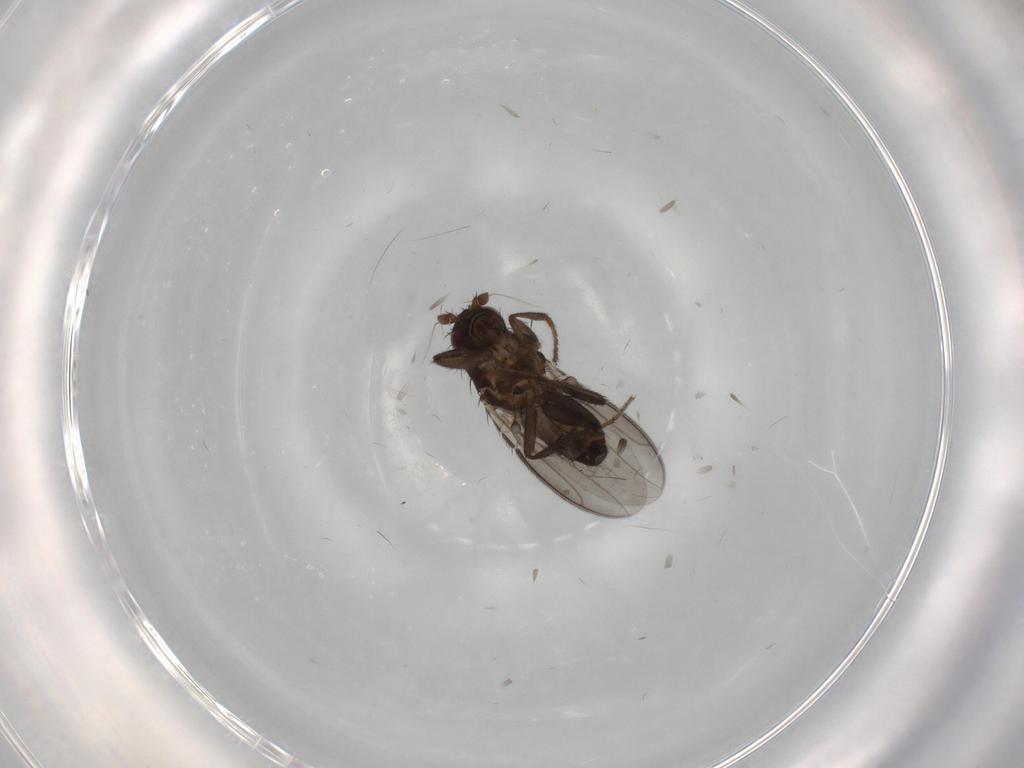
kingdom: Animalia
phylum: Arthropoda
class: Insecta
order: Diptera
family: Sphaeroceridae
